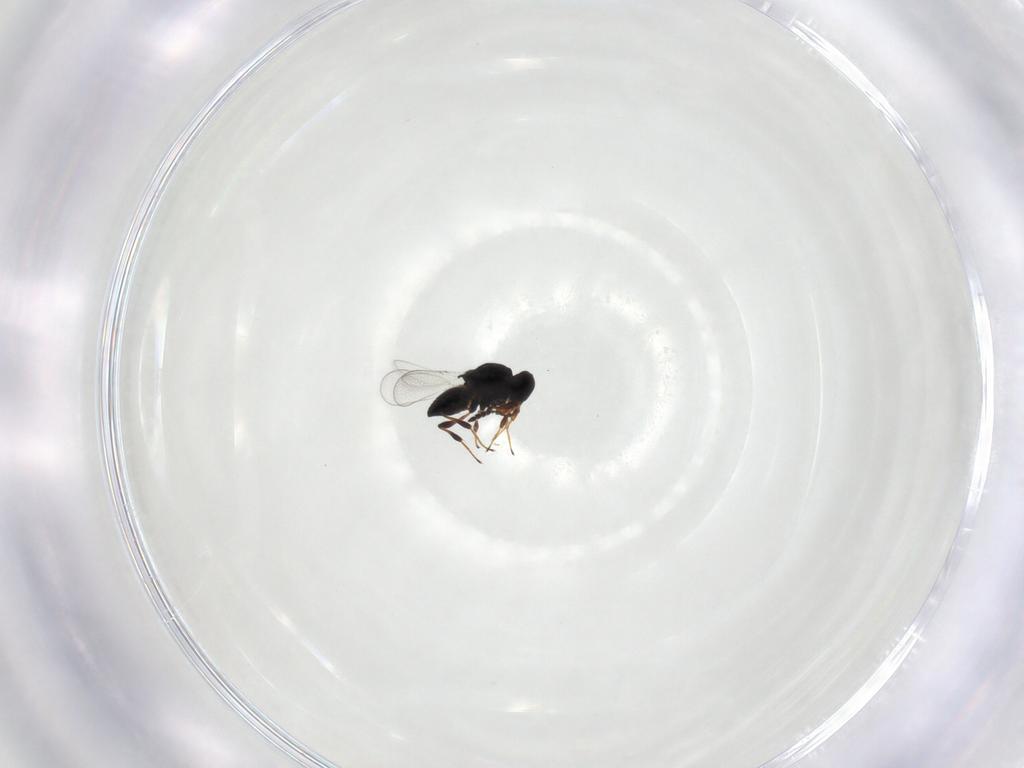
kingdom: Animalia
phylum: Arthropoda
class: Insecta
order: Hymenoptera
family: Platygastridae
